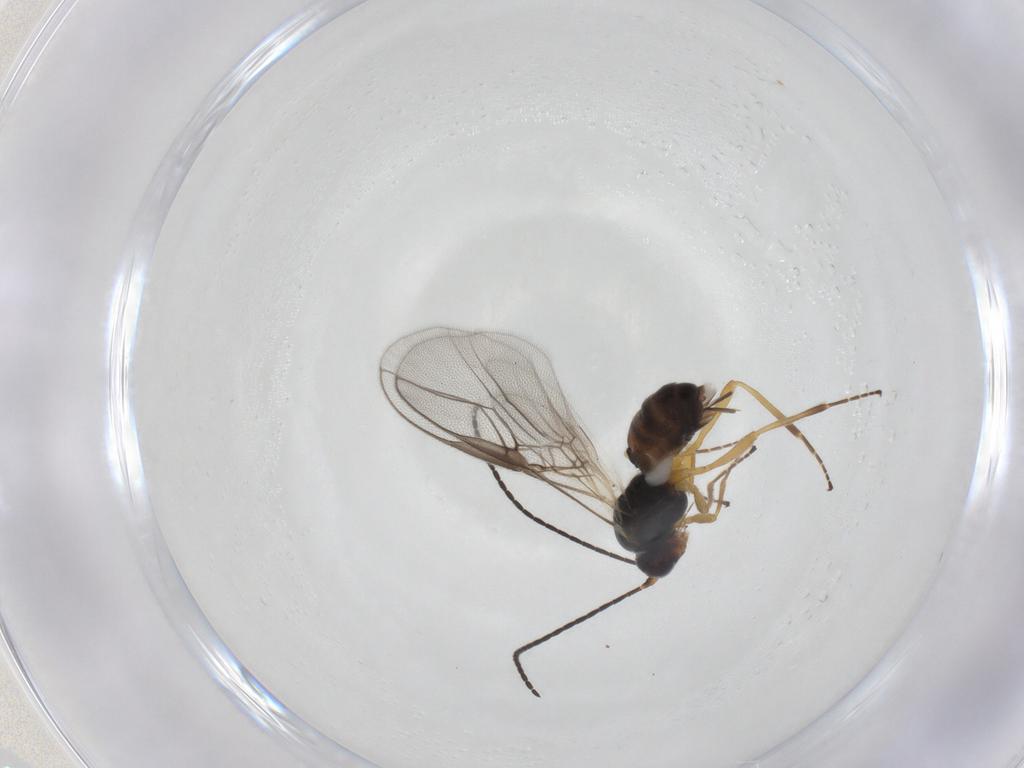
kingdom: Animalia
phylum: Arthropoda
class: Insecta
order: Hymenoptera
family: Braconidae
